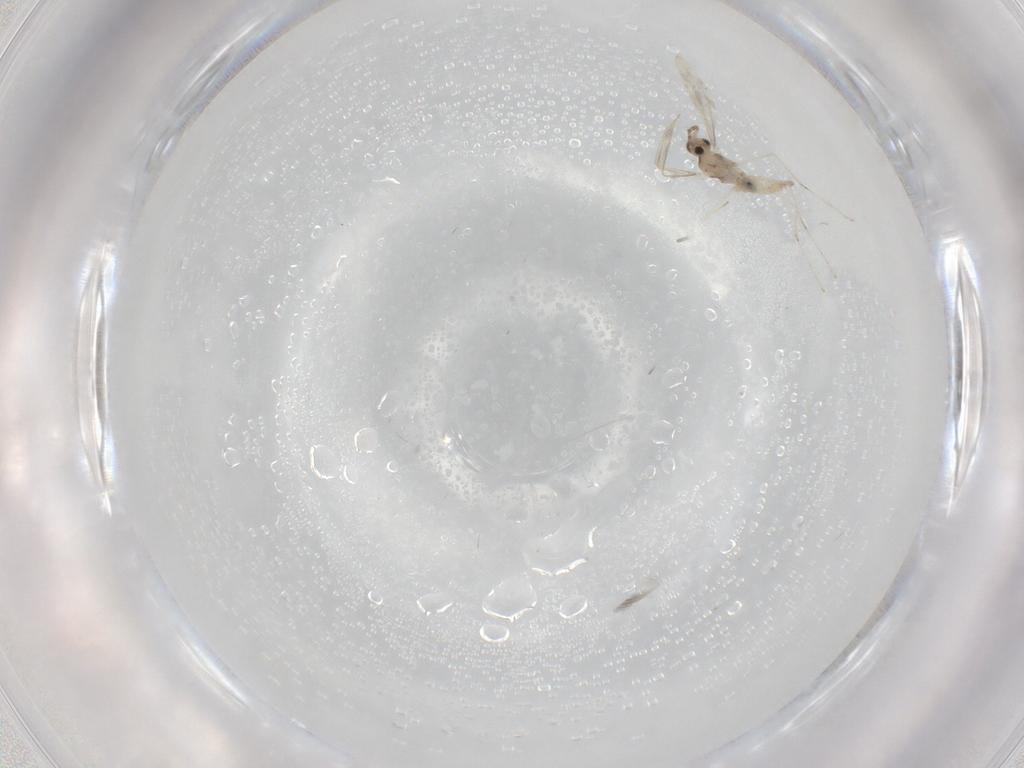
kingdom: Animalia
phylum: Arthropoda
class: Insecta
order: Diptera
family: Cecidomyiidae
